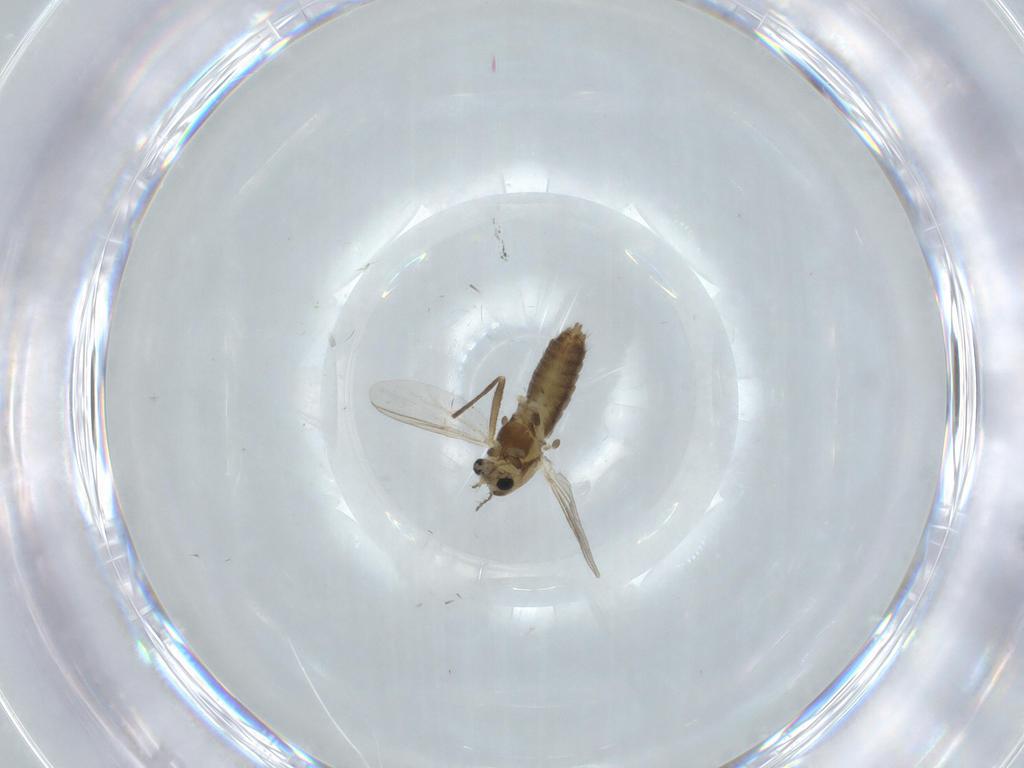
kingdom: Animalia
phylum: Arthropoda
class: Insecta
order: Diptera
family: Chironomidae
